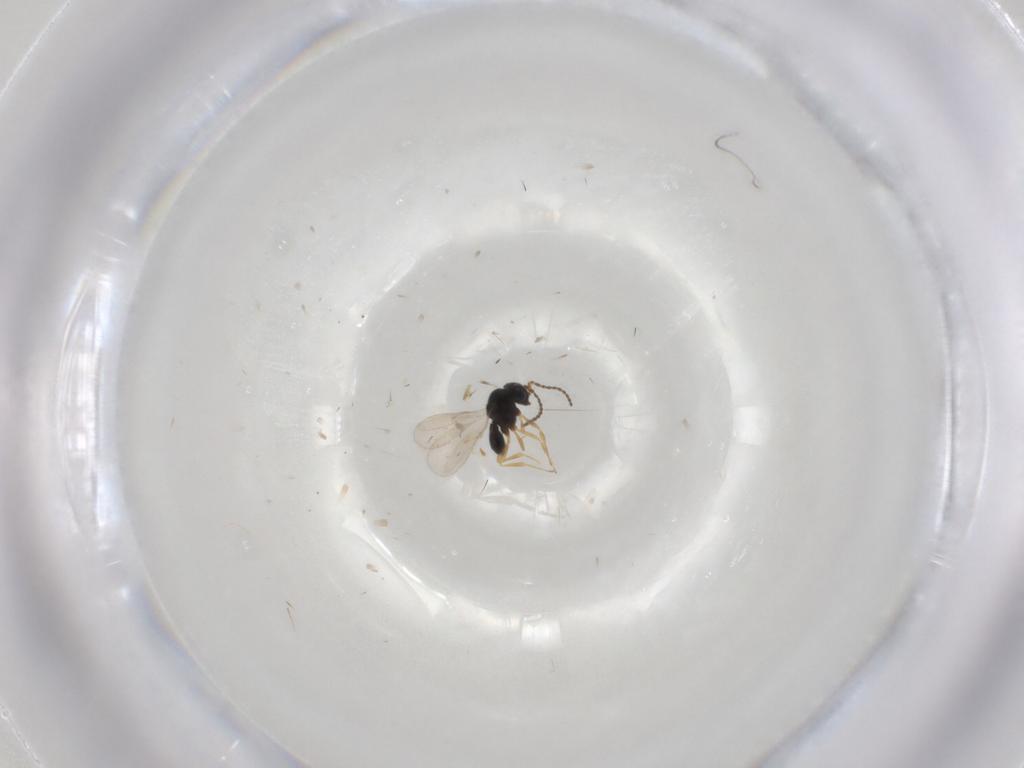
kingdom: Animalia
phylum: Arthropoda
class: Insecta
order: Hymenoptera
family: Scelionidae
